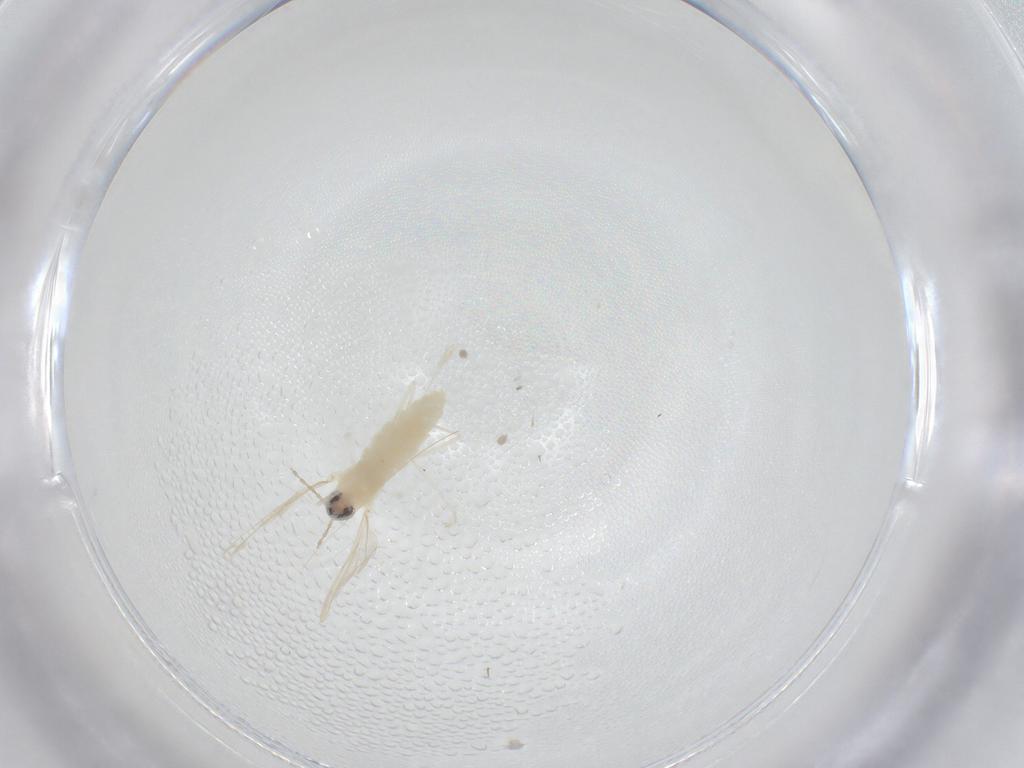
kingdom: Animalia
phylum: Arthropoda
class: Insecta
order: Diptera
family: Cecidomyiidae
